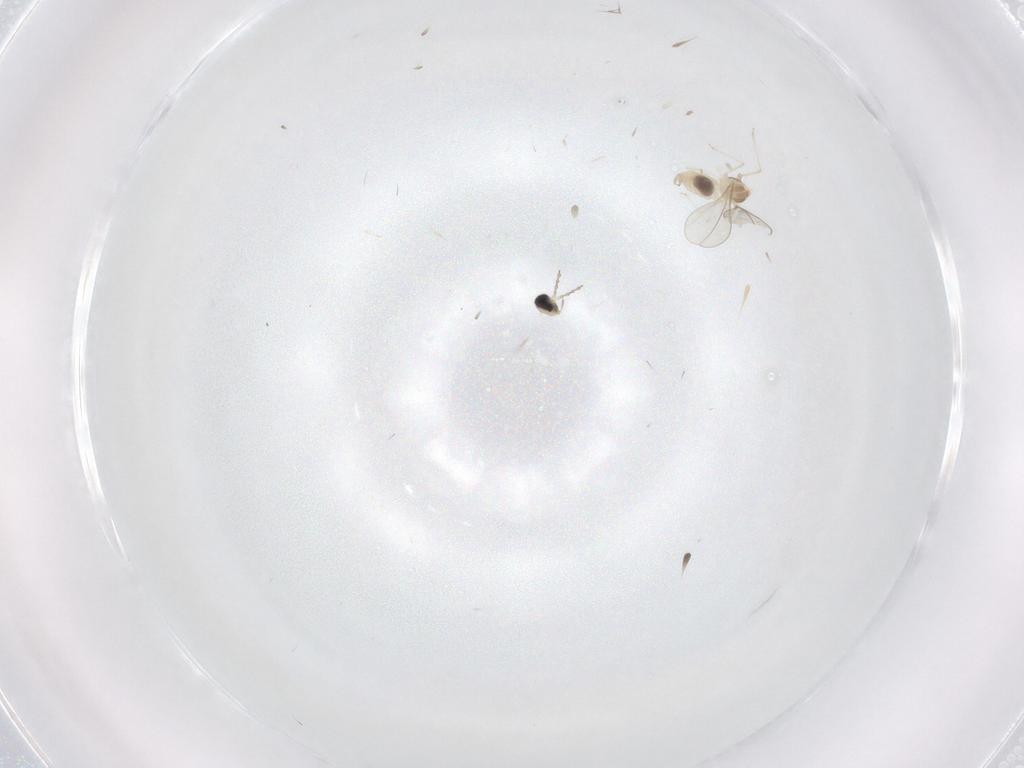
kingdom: Animalia
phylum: Arthropoda
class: Insecta
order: Diptera
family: Cecidomyiidae
